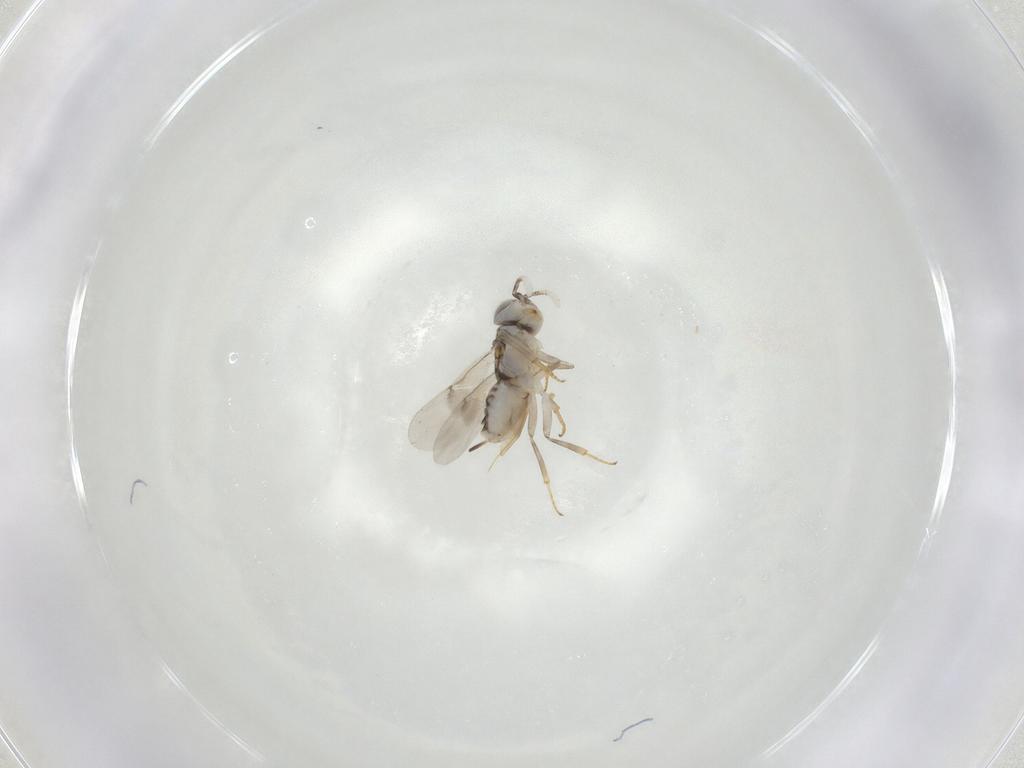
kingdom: Animalia
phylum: Arthropoda
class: Insecta
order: Hymenoptera
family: Encyrtidae
